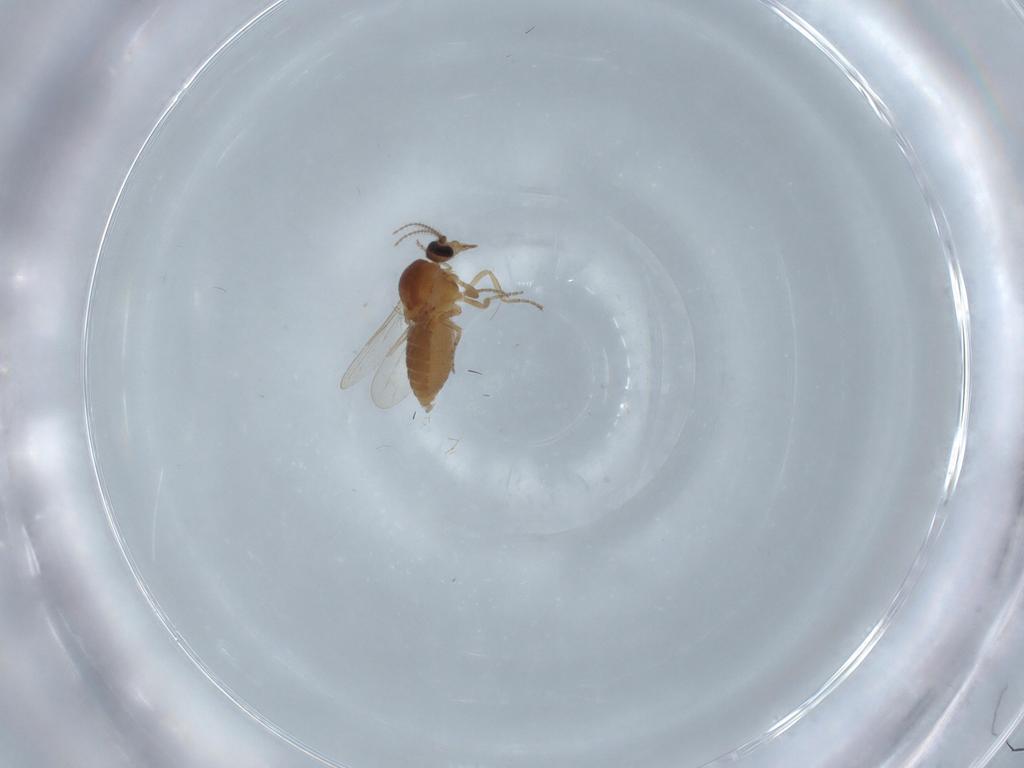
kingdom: Animalia
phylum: Arthropoda
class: Insecta
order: Diptera
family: Ceratopogonidae
